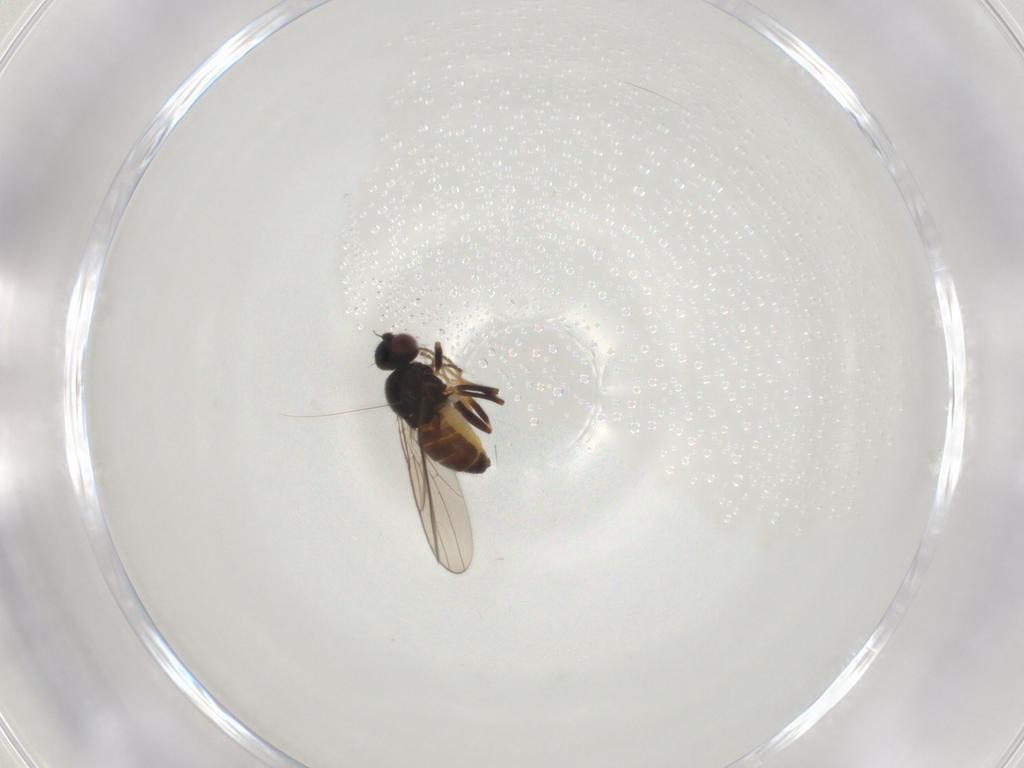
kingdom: Animalia
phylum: Arthropoda
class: Insecta
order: Diptera
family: Chloropidae
